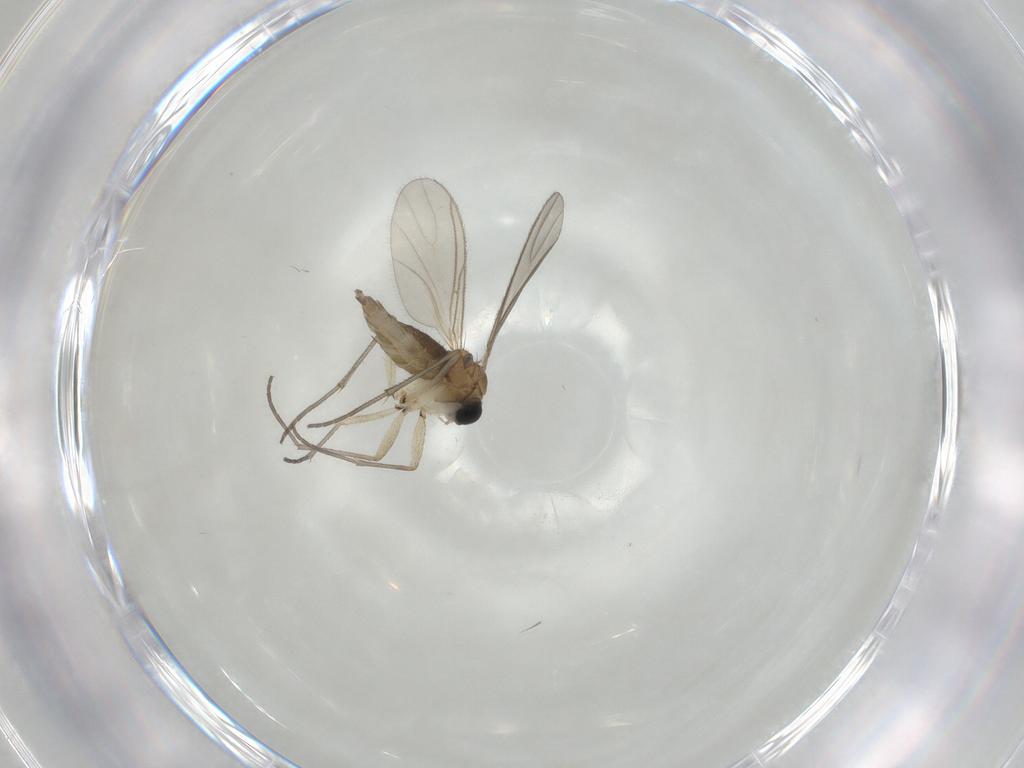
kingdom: Animalia
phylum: Arthropoda
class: Insecta
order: Diptera
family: Sciaridae
